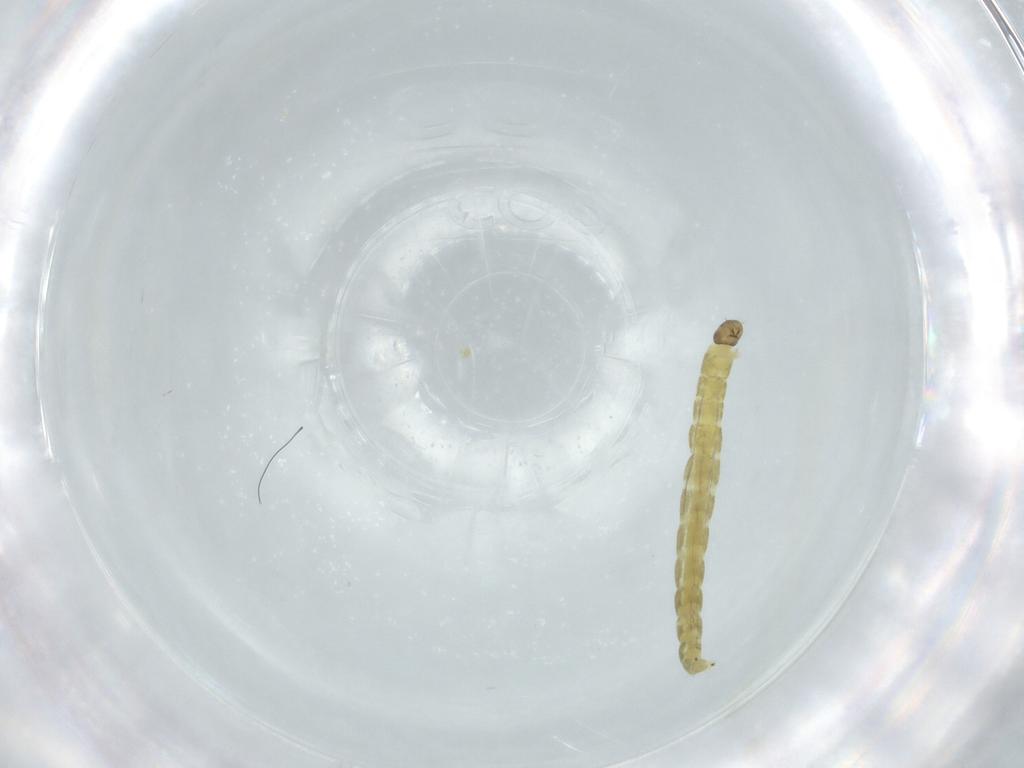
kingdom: Animalia
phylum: Arthropoda
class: Insecta
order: Diptera
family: Chironomidae
